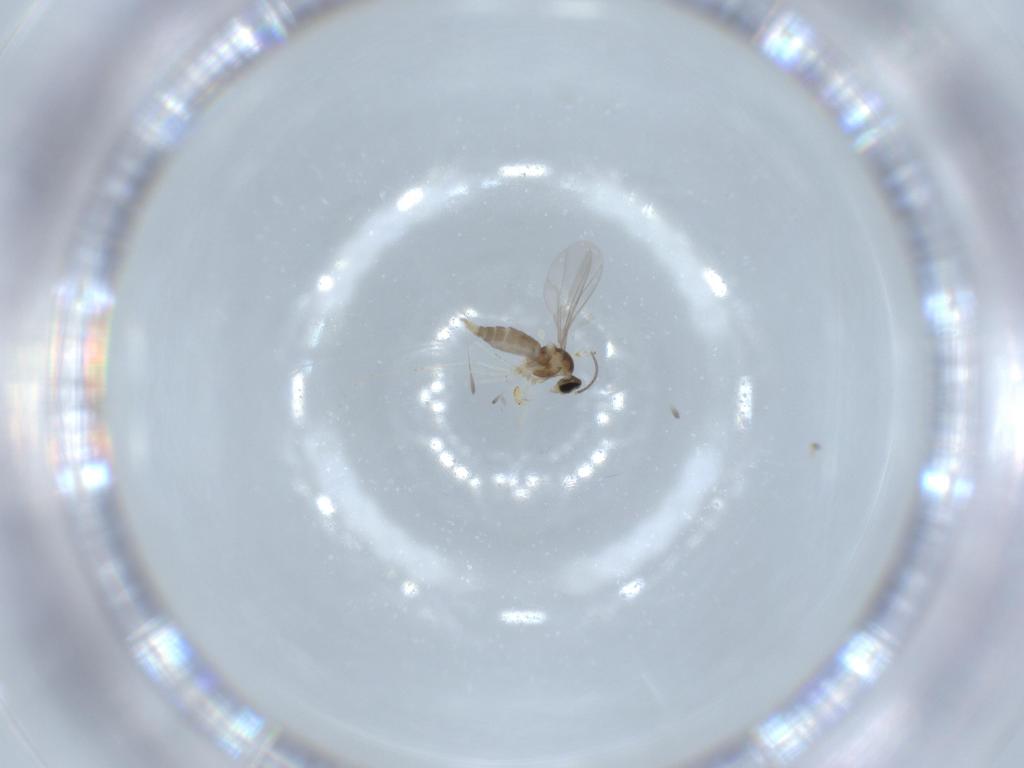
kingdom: Animalia
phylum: Arthropoda
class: Insecta
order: Diptera
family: Cecidomyiidae
